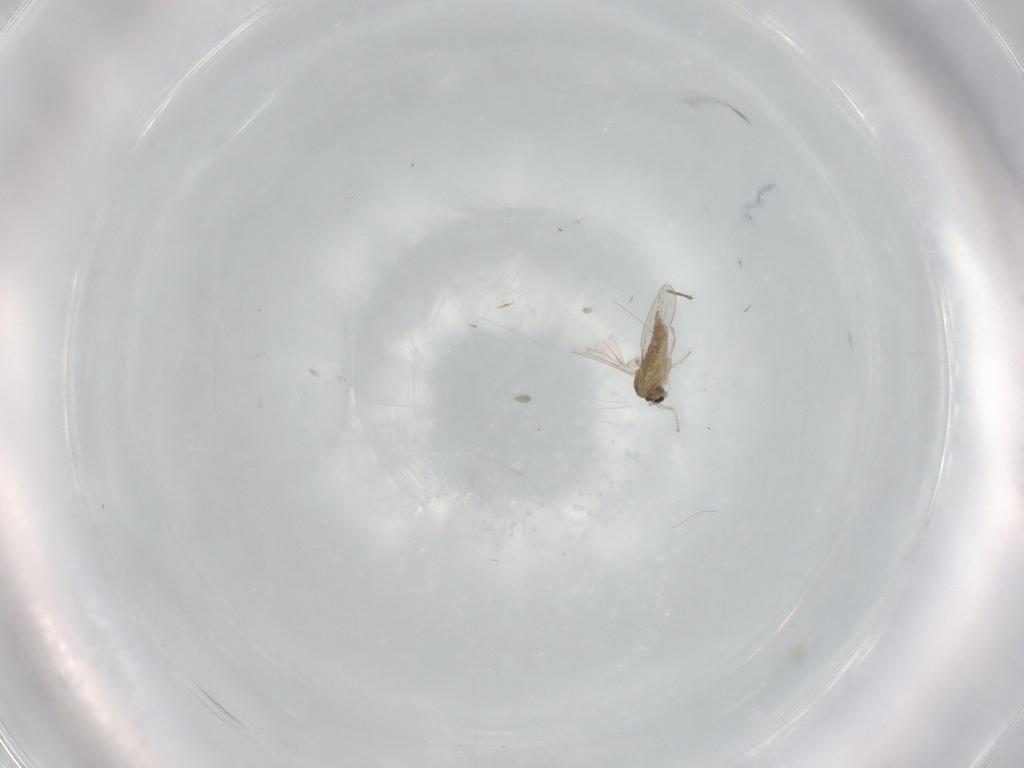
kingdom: Animalia
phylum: Arthropoda
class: Insecta
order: Diptera
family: Cecidomyiidae
